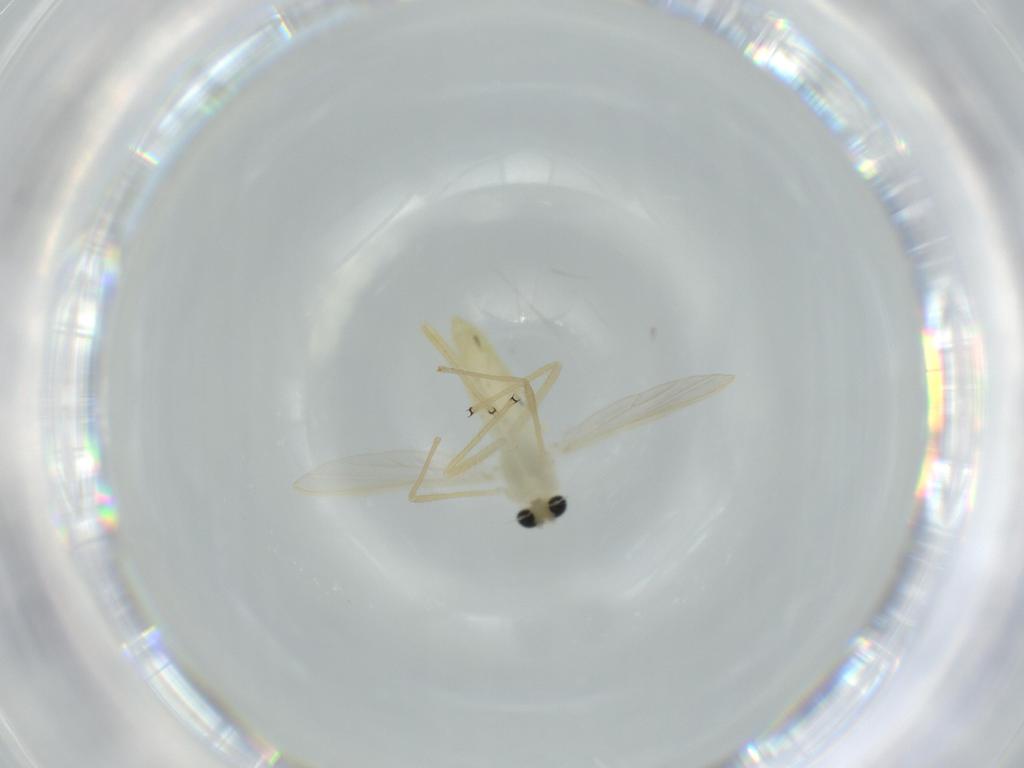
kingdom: Animalia
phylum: Arthropoda
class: Insecta
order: Diptera
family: Chironomidae
